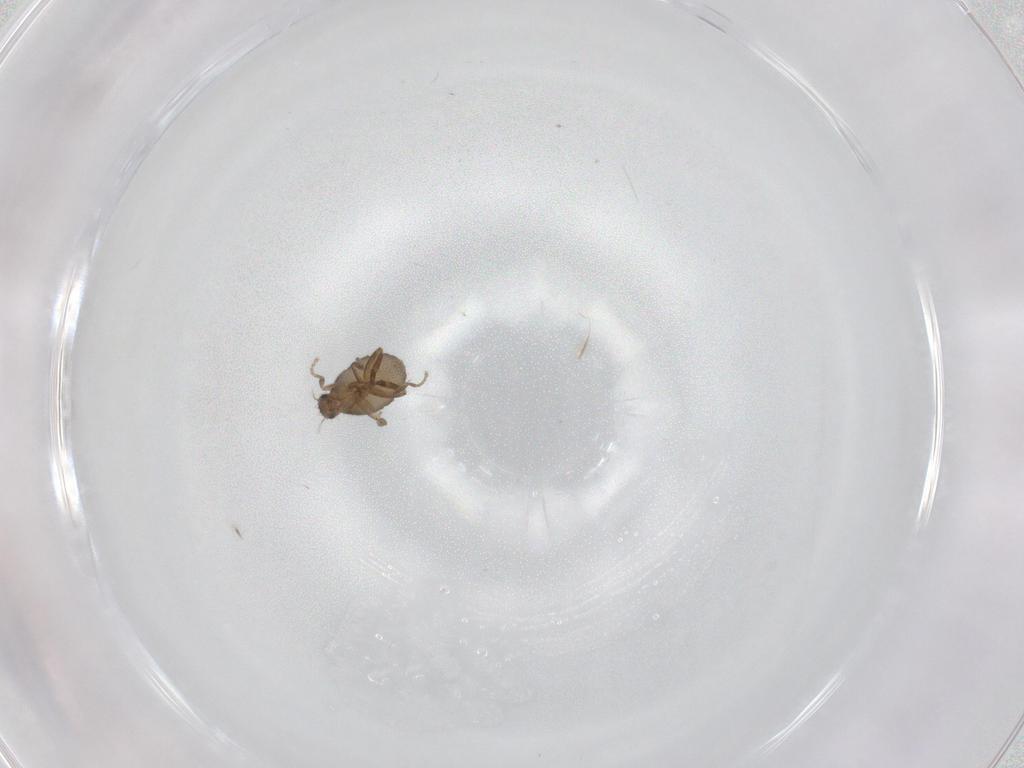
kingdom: Animalia
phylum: Arthropoda
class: Insecta
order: Diptera
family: Phoridae
